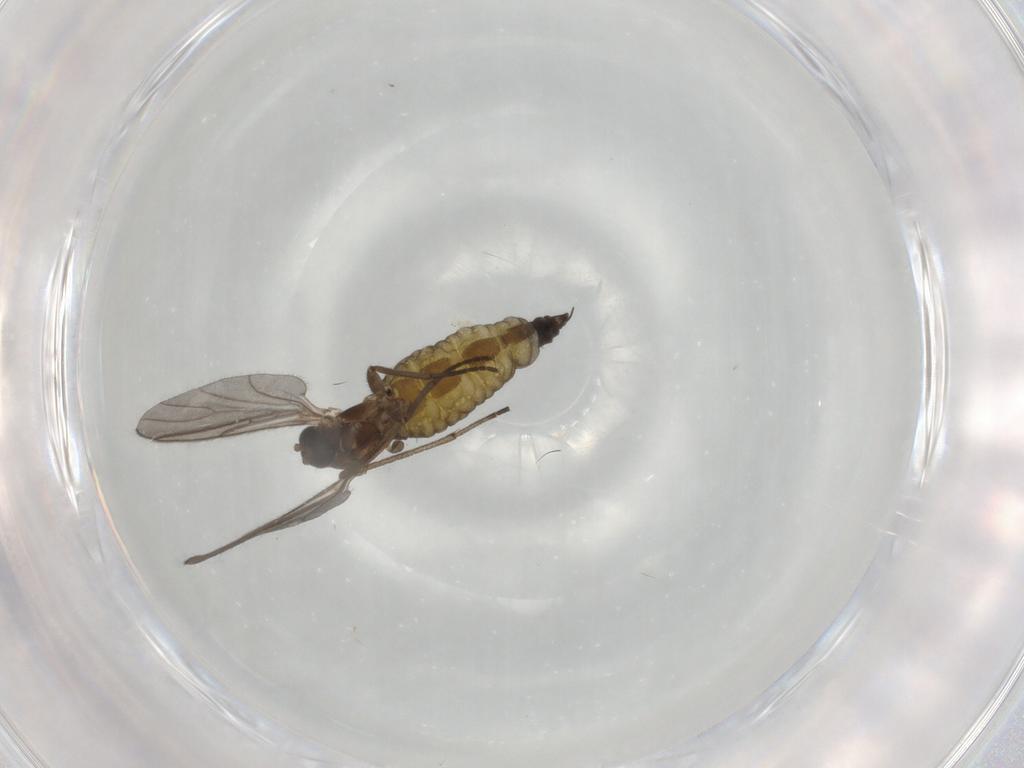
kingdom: Animalia
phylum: Arthropoda
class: Insecta
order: Diptera
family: Sciaridae
